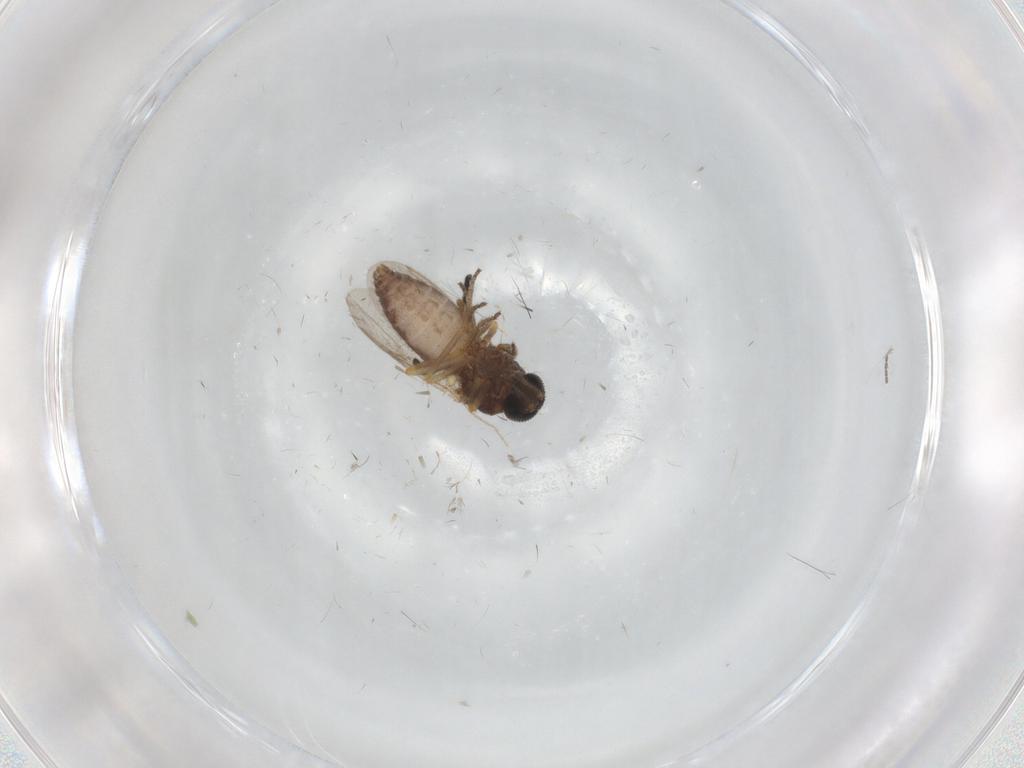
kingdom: Animalia
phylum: Arthropoda
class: Insecta
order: Diptera
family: Ceratopogonidae
